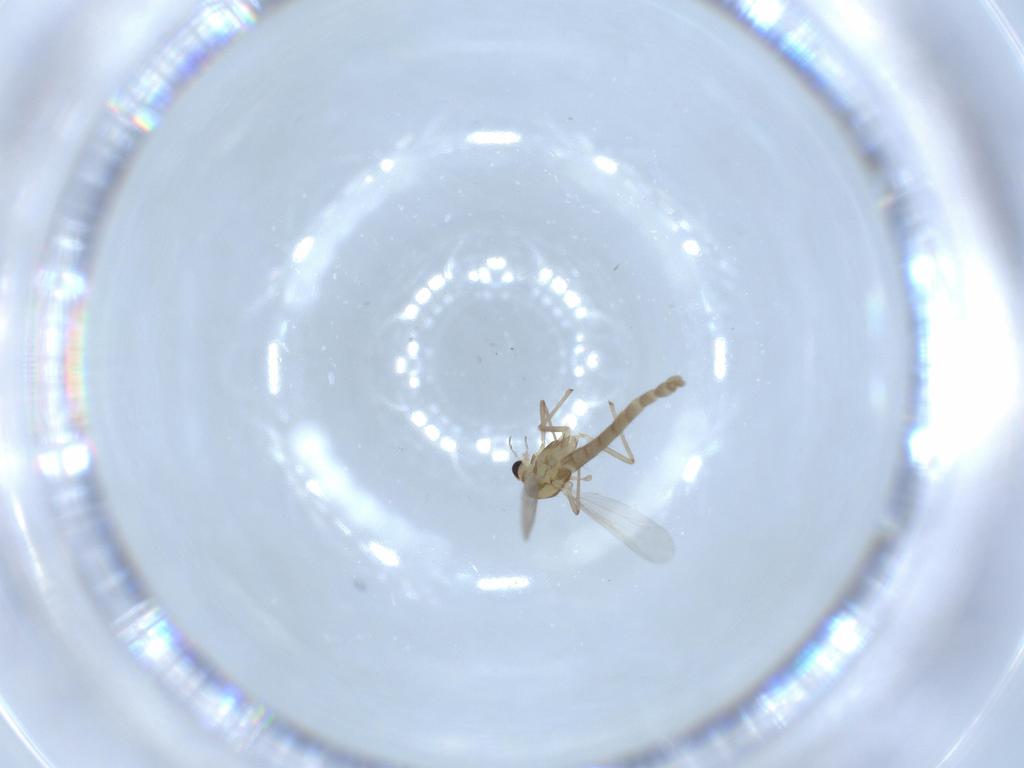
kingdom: Animalia
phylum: Arthropoda
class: Insecta
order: Diptera
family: Chironomidae
